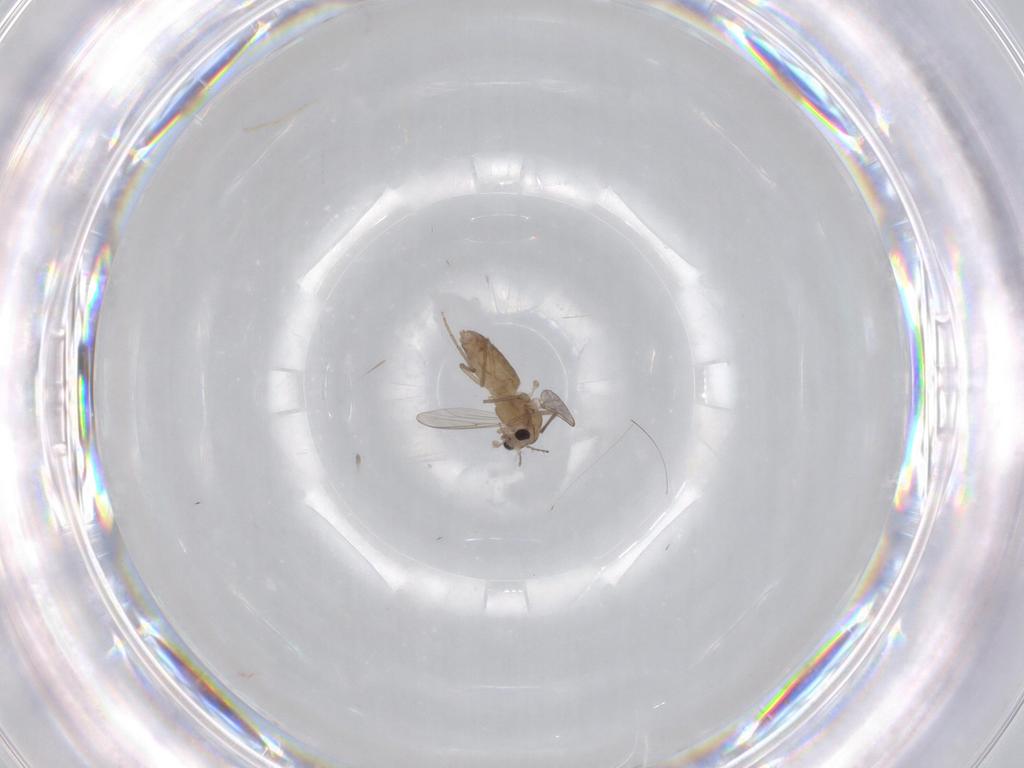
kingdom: Animalia
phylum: Arthropoda
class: Insecta
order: Diptera
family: Chironomidae
